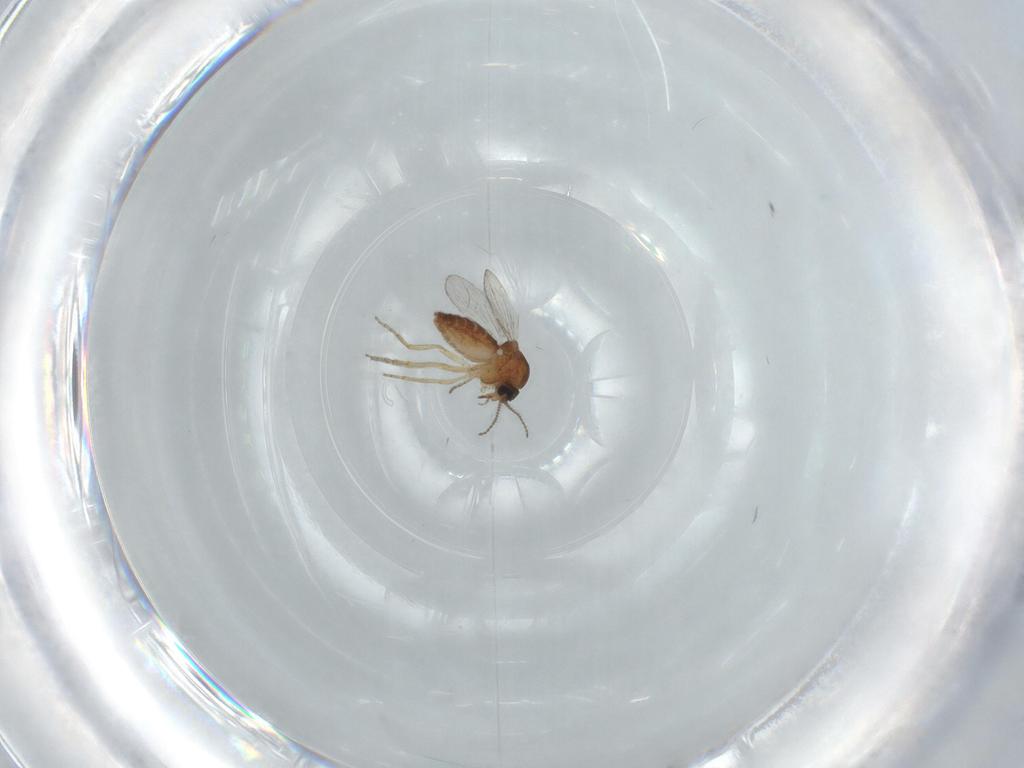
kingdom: Animalia
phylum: Arthropoda
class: Insecta
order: Diptera
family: Ceratopogonidae
